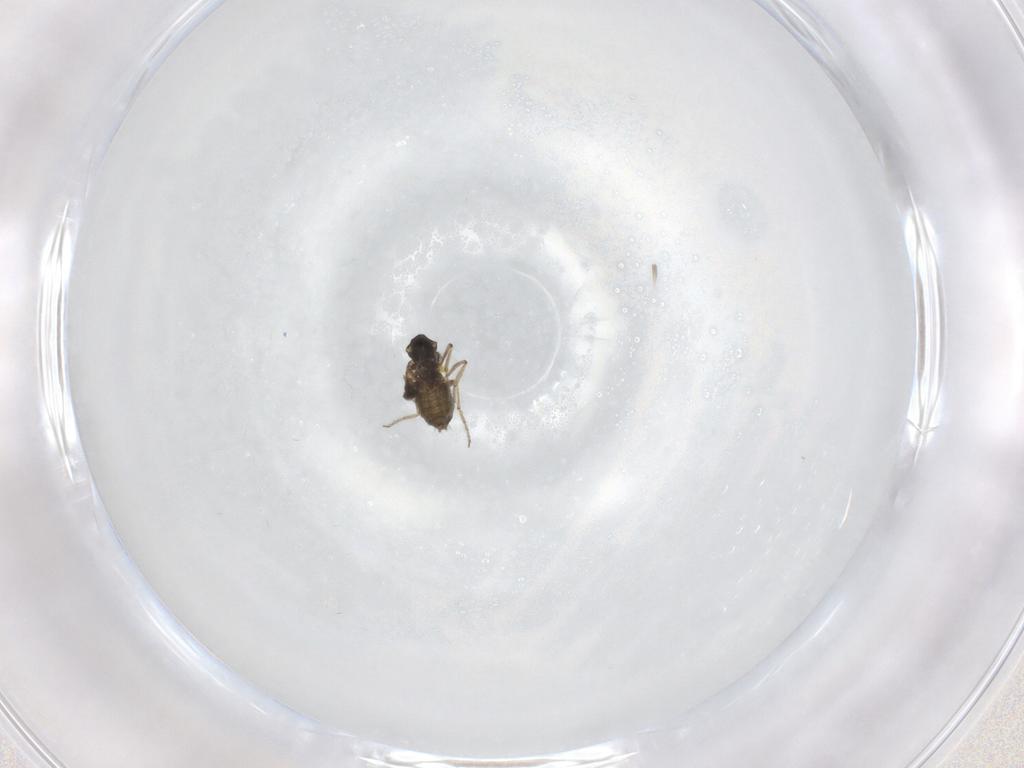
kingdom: Animalia
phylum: Arthropoda
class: Insecta
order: Diptera
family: Ceratopogonidae
